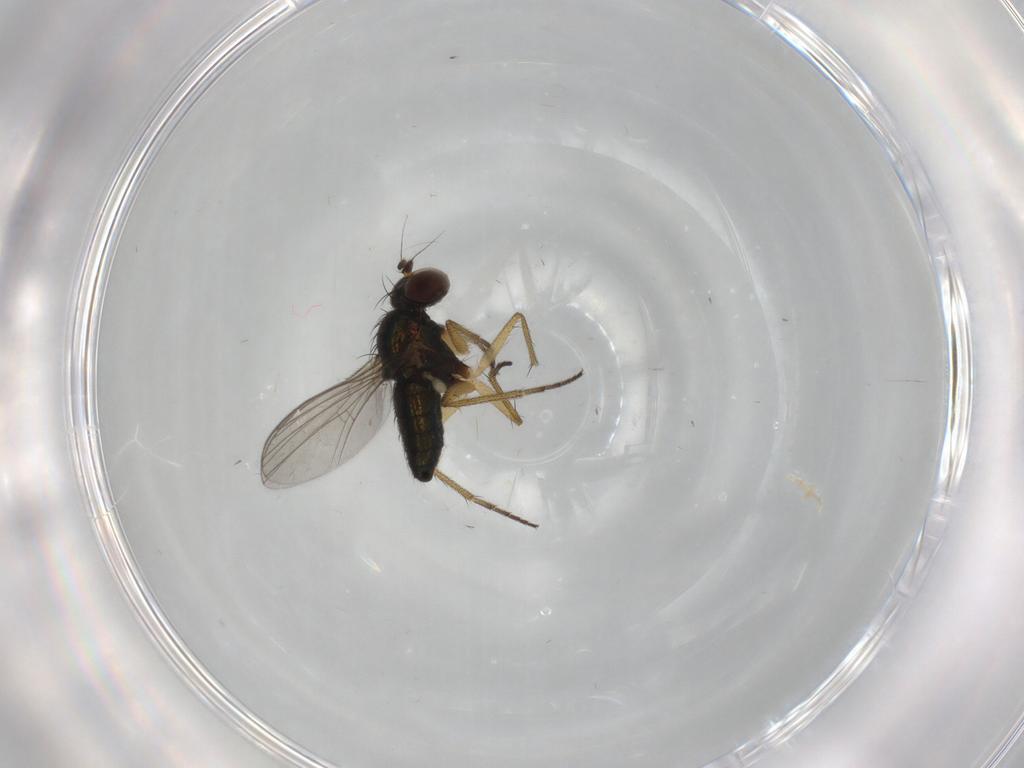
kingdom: Animalia
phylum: Arthropoda
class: Insecta
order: Diptera
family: Dolichopodidae
